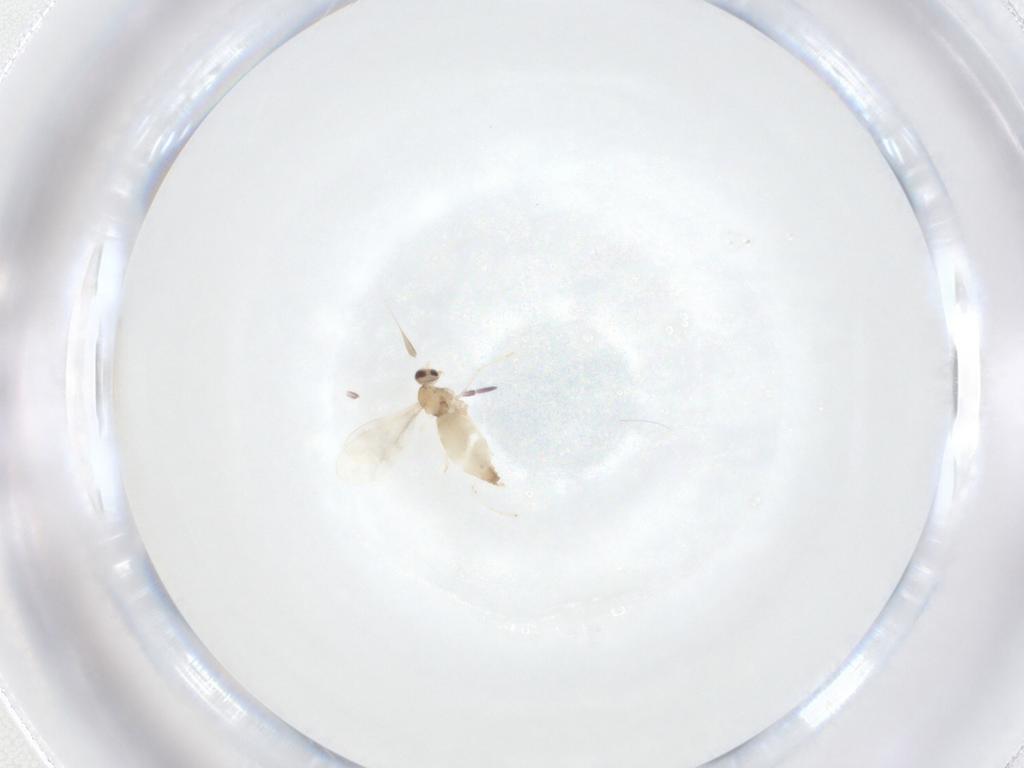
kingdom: Animalia
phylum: Arthropoda
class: Insecta
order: Diptera
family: Cecidomyiidae
